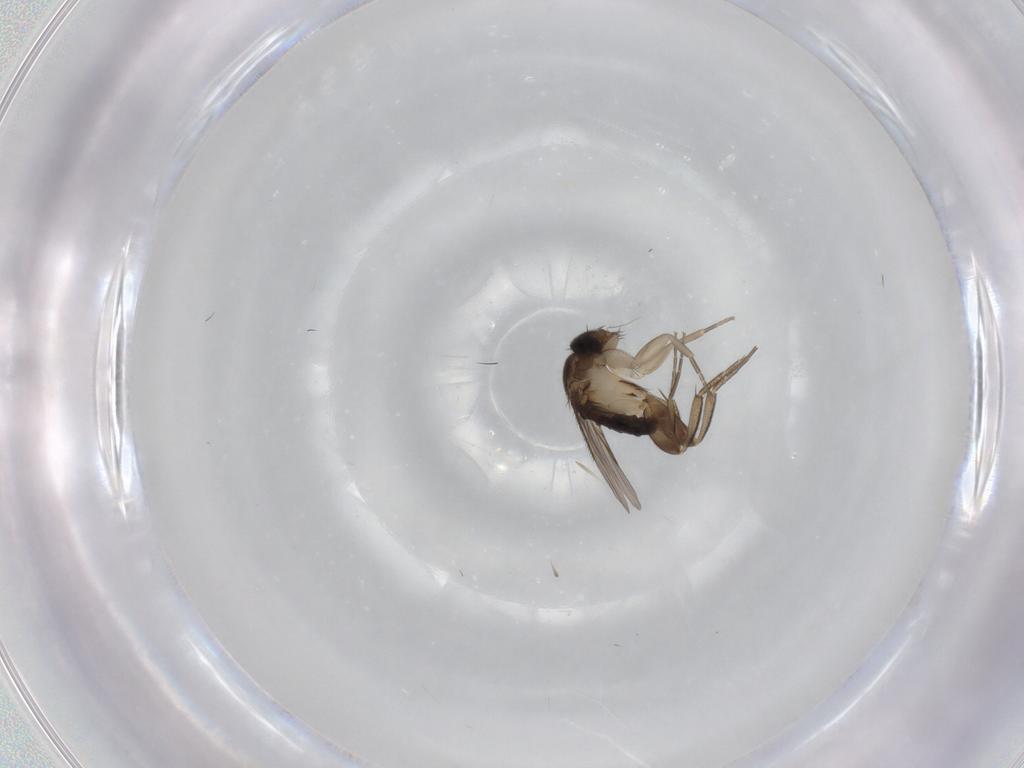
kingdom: Animalia
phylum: Arthropoda
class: Insecta
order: Diptera
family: Phoridae
